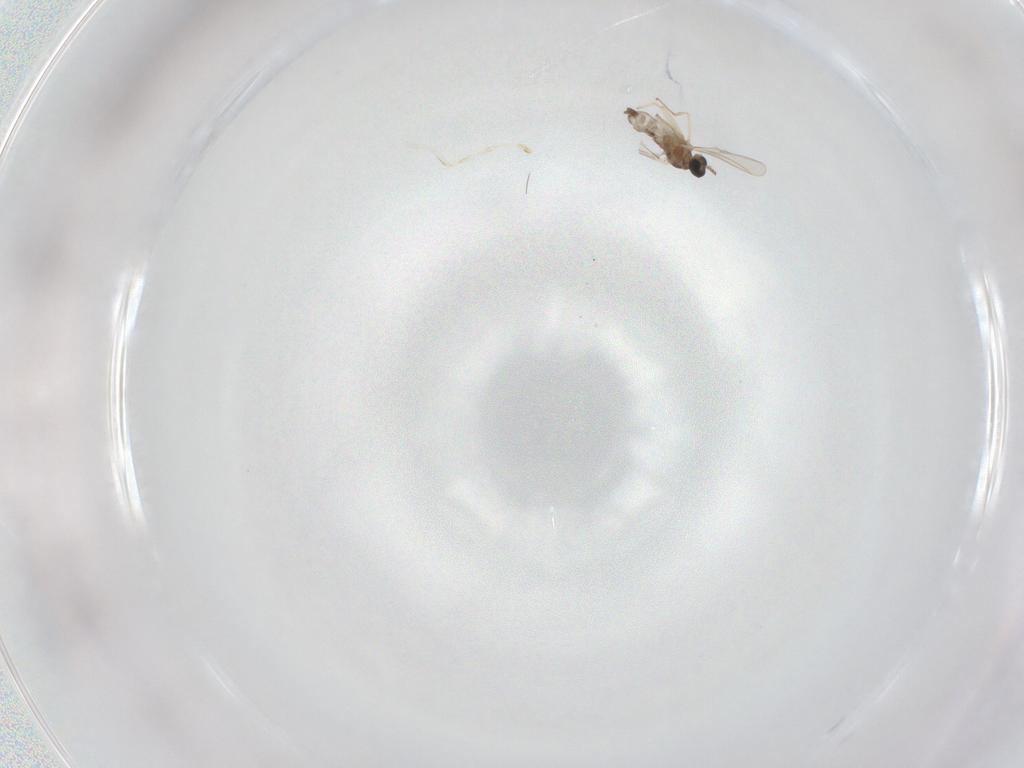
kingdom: Animalia
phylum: Arthropoda
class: Insecta
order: Diptera
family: Cecidomyiidae
